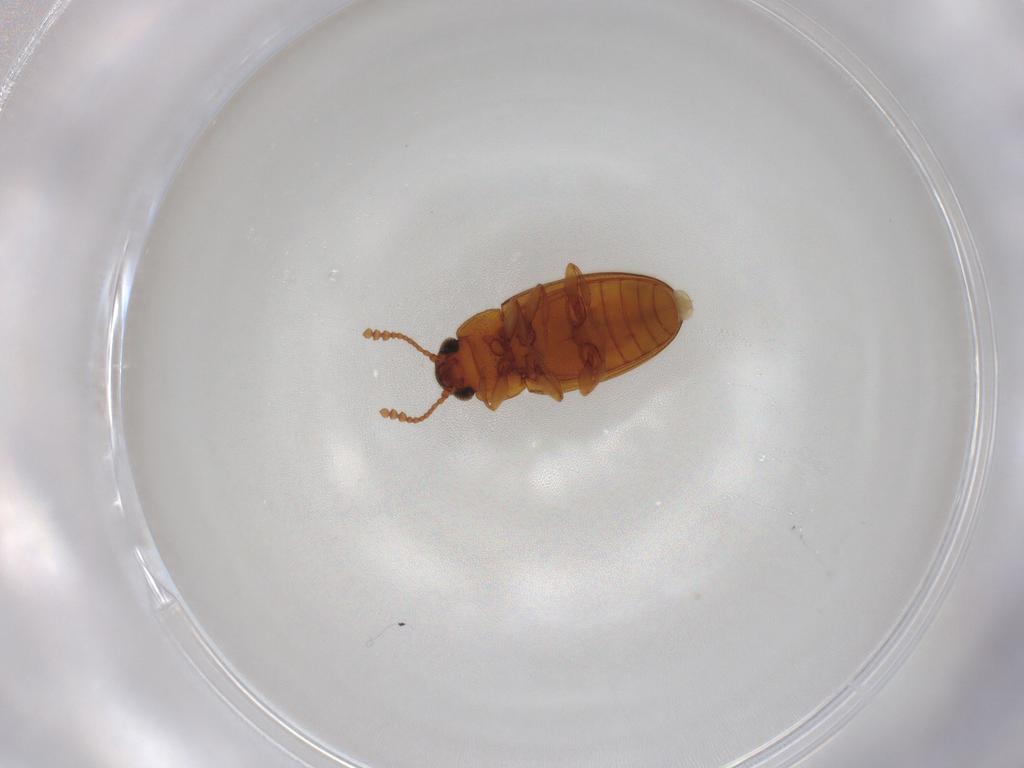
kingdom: Animalia
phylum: Arthropoda
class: Insecta
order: Coleoptera
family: Erotylidae
